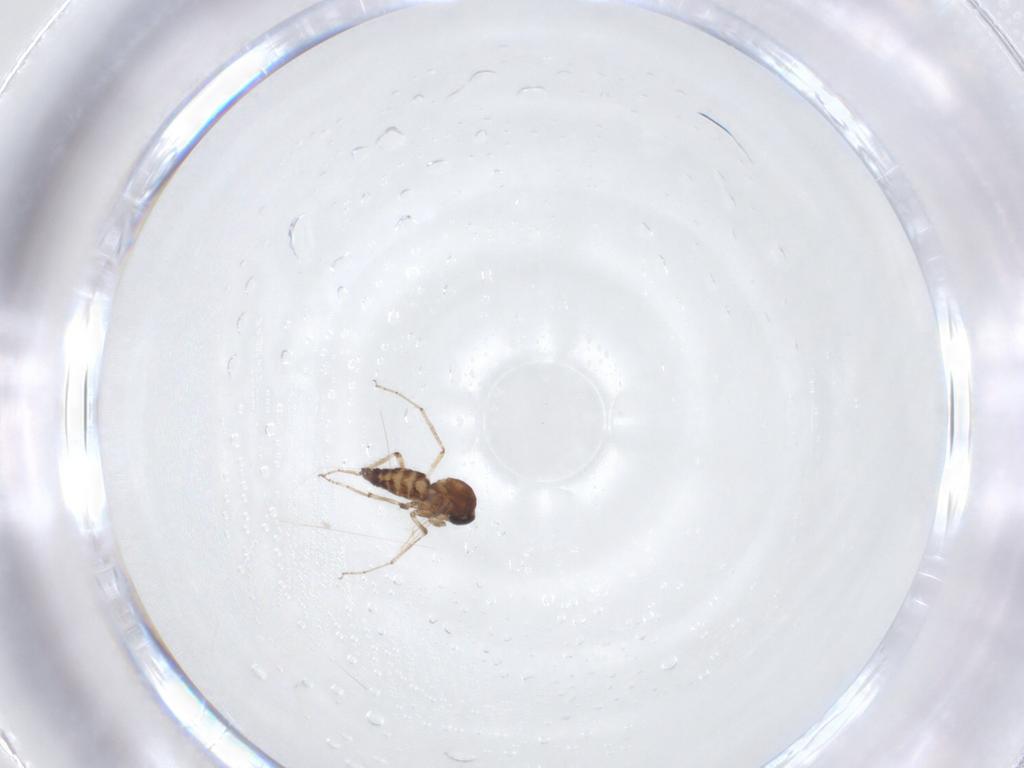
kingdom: Animalia
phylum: Arthropoda
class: Insecta
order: Diptera
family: Ceratopogonidae
